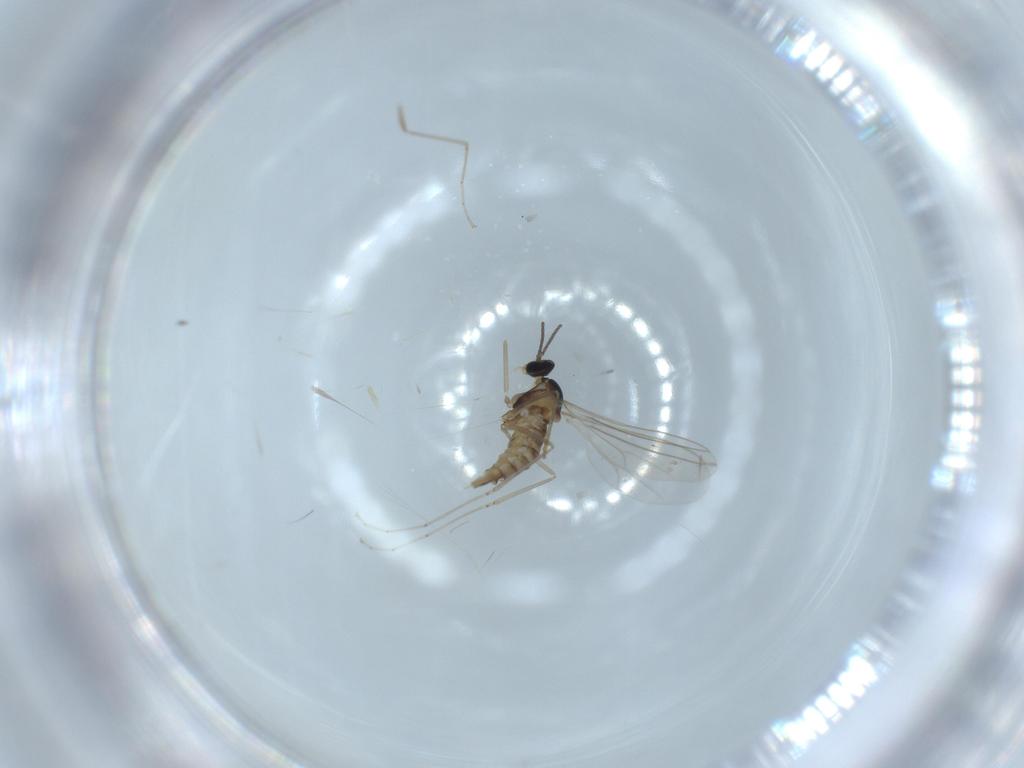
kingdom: Animalia
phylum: Arthropoda
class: Insecta
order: Diptera
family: Cecidomyiidae
